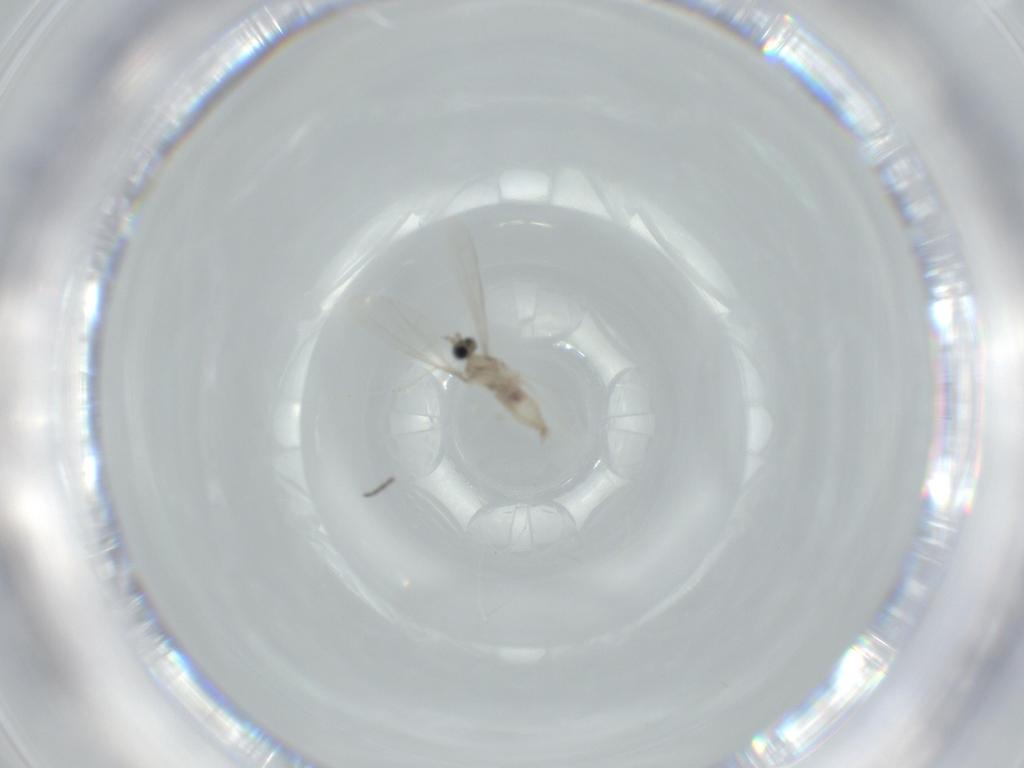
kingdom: Animalia
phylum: Arthropoda
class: Insecta
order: Diptera
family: Cecidomyiidae
